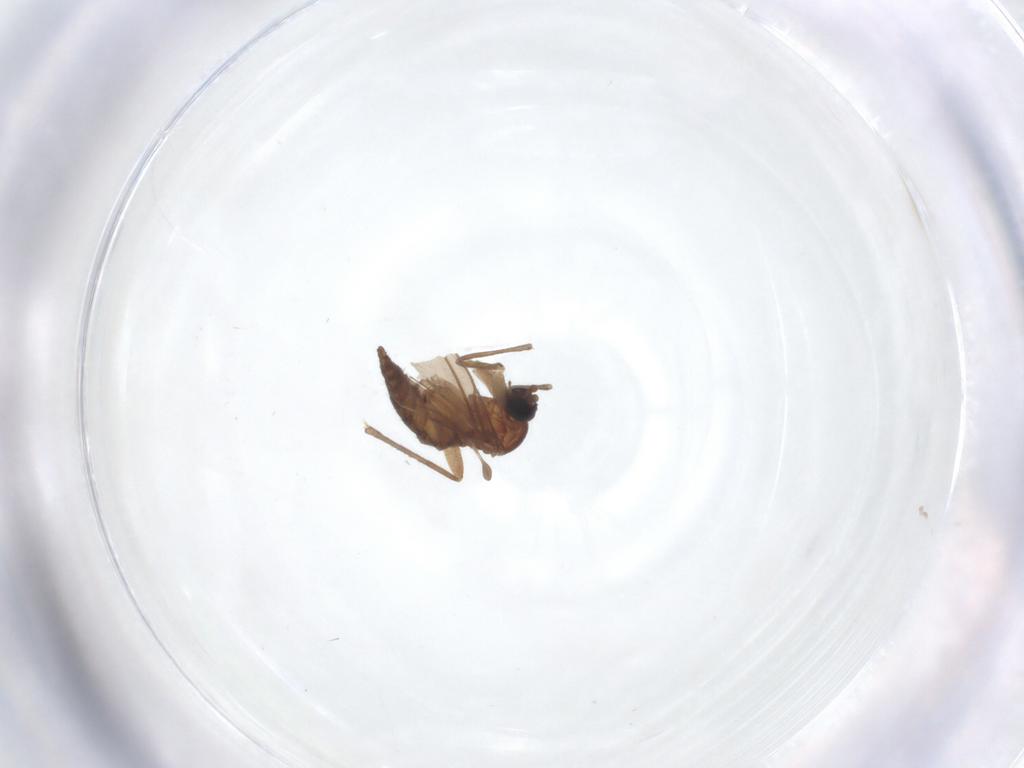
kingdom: Animalia
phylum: Arthropoda
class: Insecta
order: Diptera
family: Sciaridae
